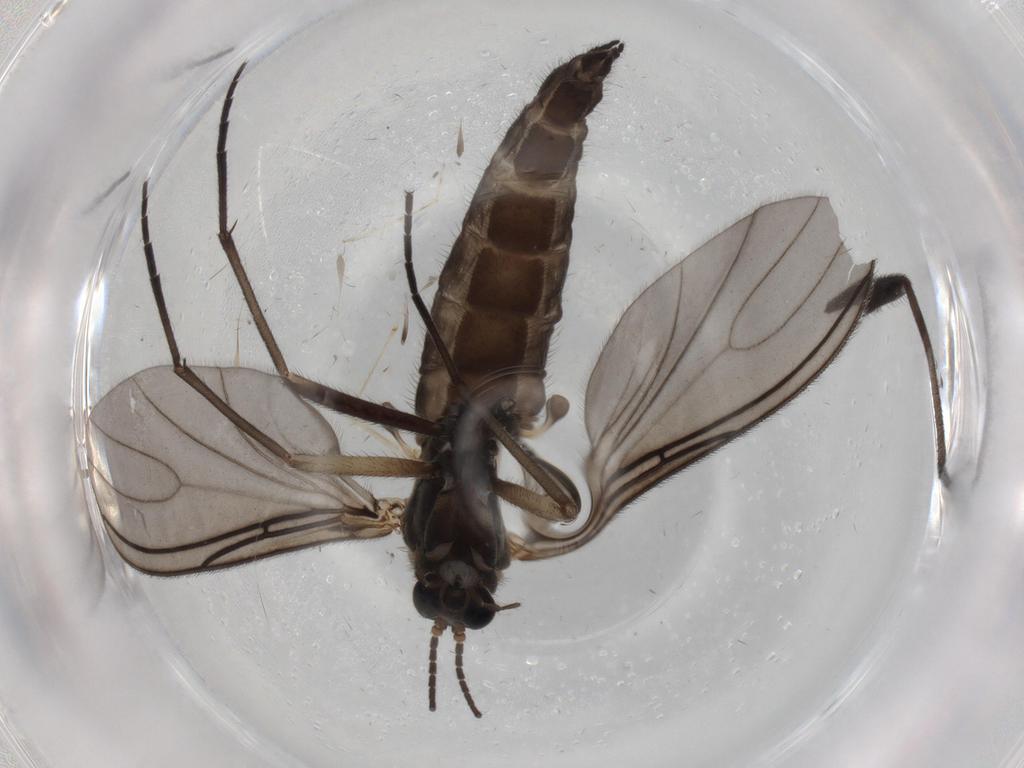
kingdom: Animalia
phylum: Arthropoda
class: Insecta
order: Diptera
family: Sciaridae
